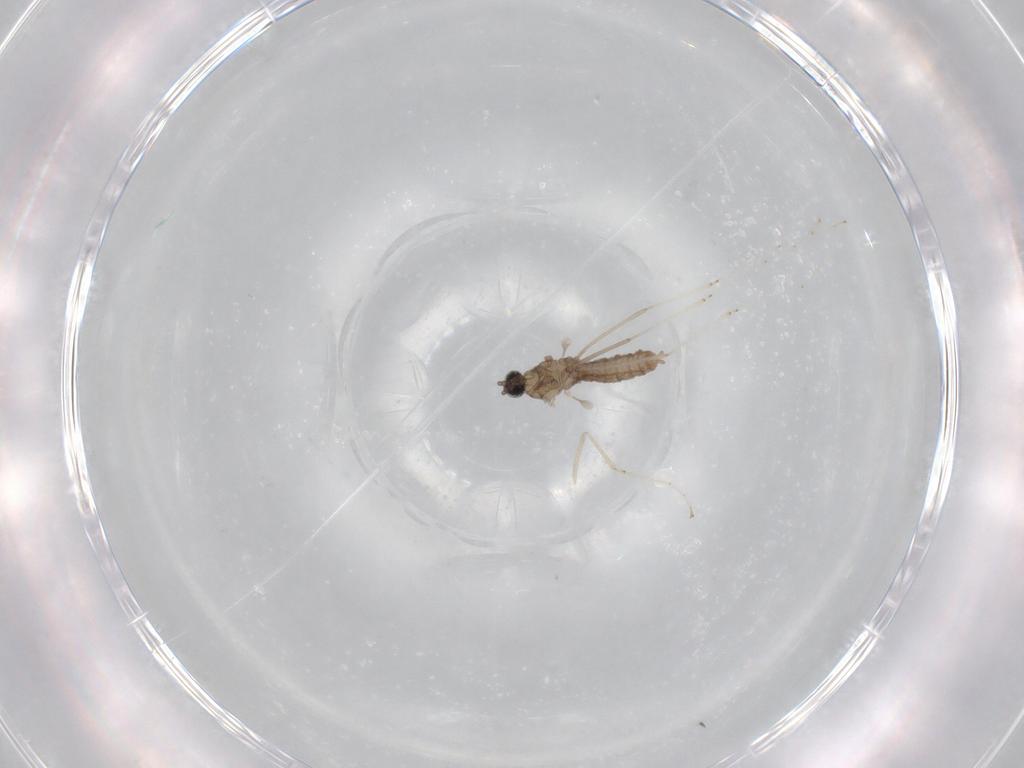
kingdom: Animalia
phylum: Arthropoda
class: Insecta
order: Diptera
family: Cecidomyiidae
